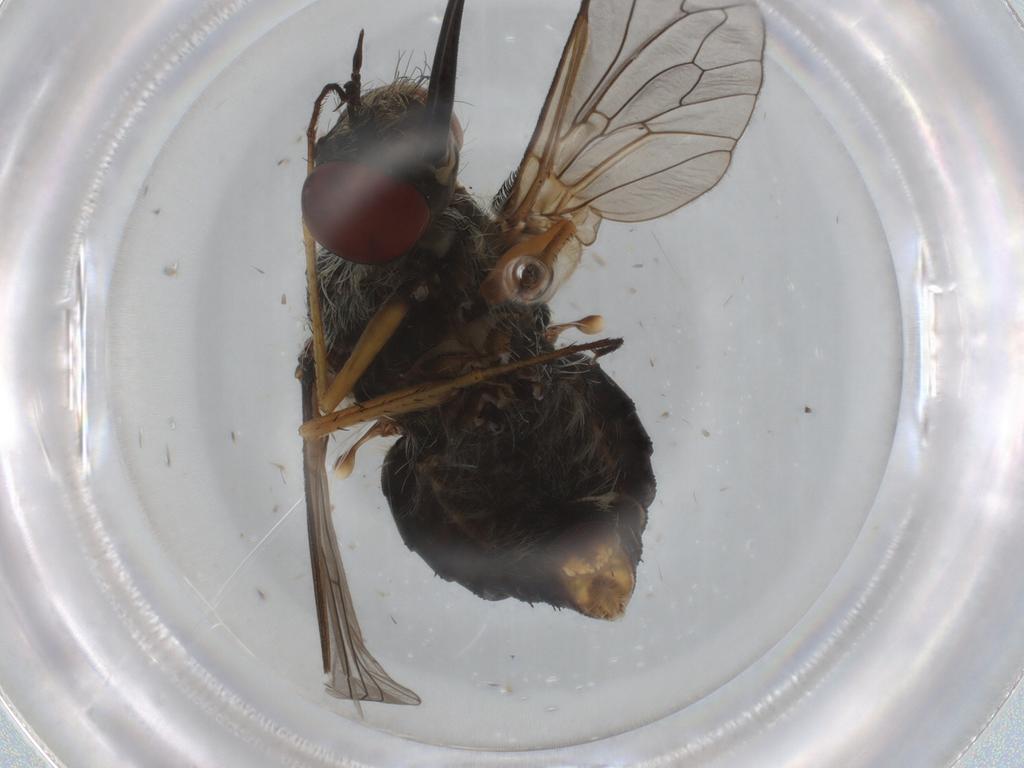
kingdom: Animalia
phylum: Arthropoda
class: Insecta
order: Diptera
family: Bombyliidae
